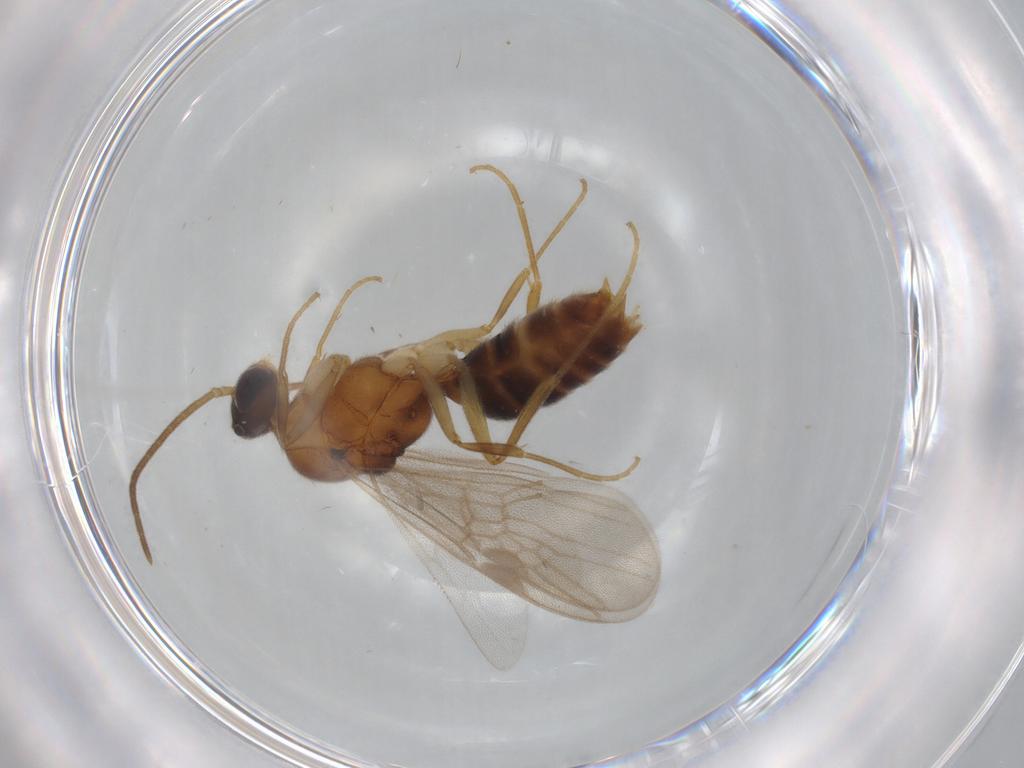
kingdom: Animalia
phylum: Arthropoda
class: Insecta
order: Hymenoptera
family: Formicidae
